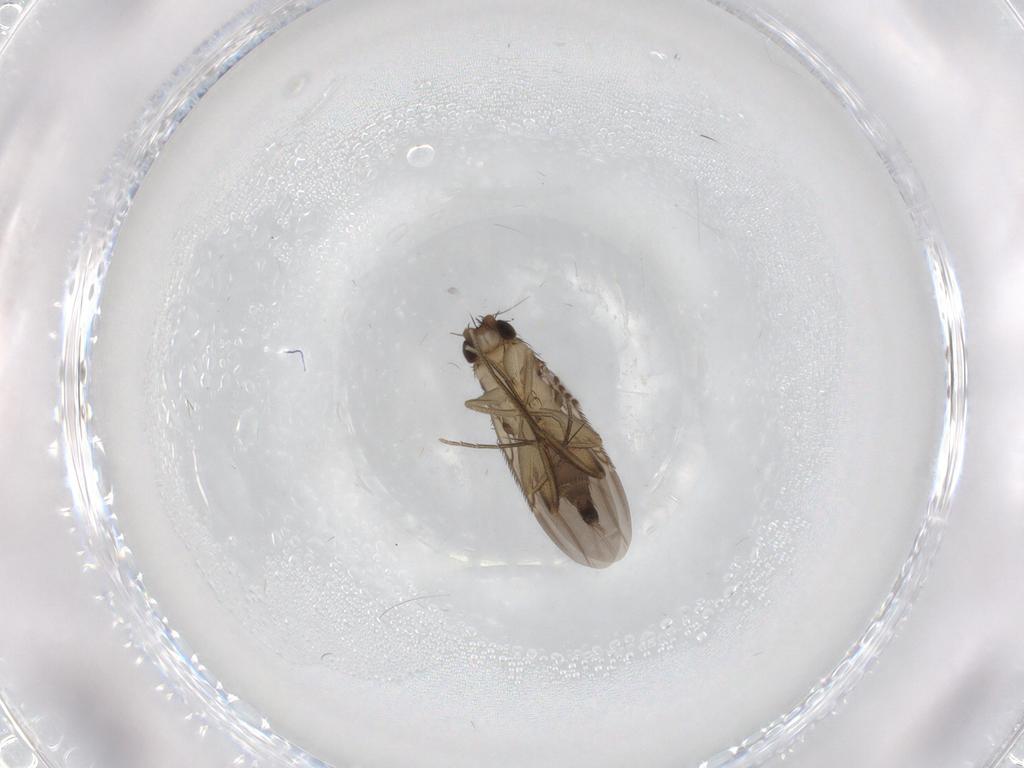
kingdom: Animalia
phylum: Arthropoda
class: Insecta
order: Diptera
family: Phoridae
